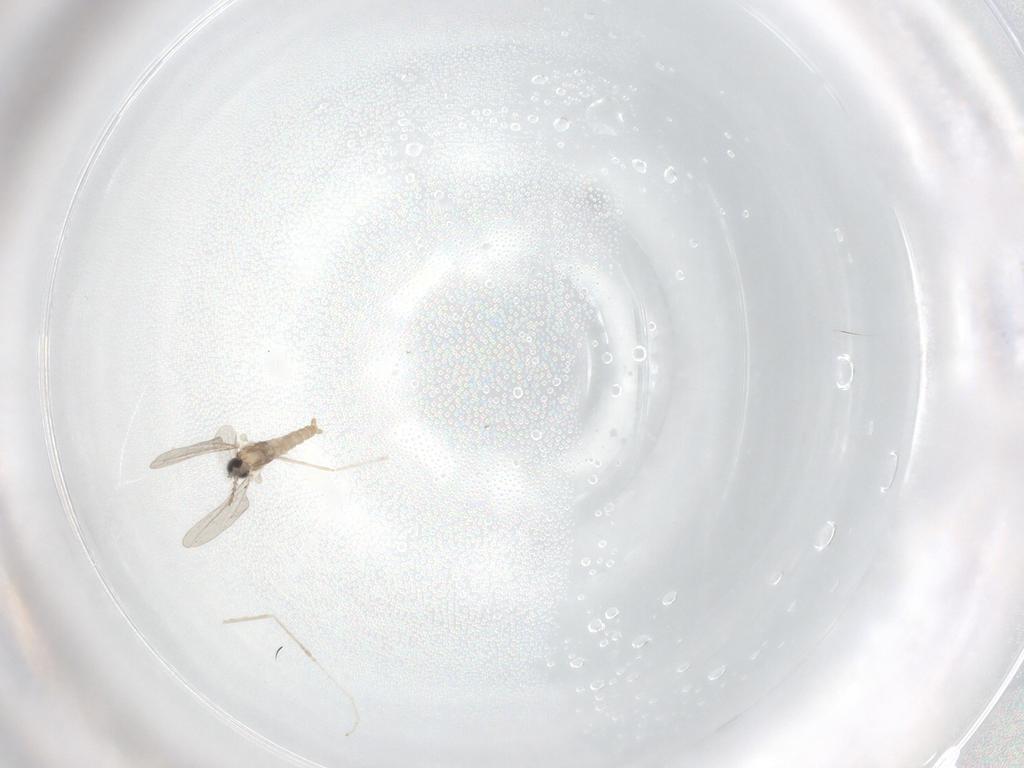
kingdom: Animalia
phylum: Arthropoda
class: Insecta
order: Diptera
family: Cecidomyiidae
